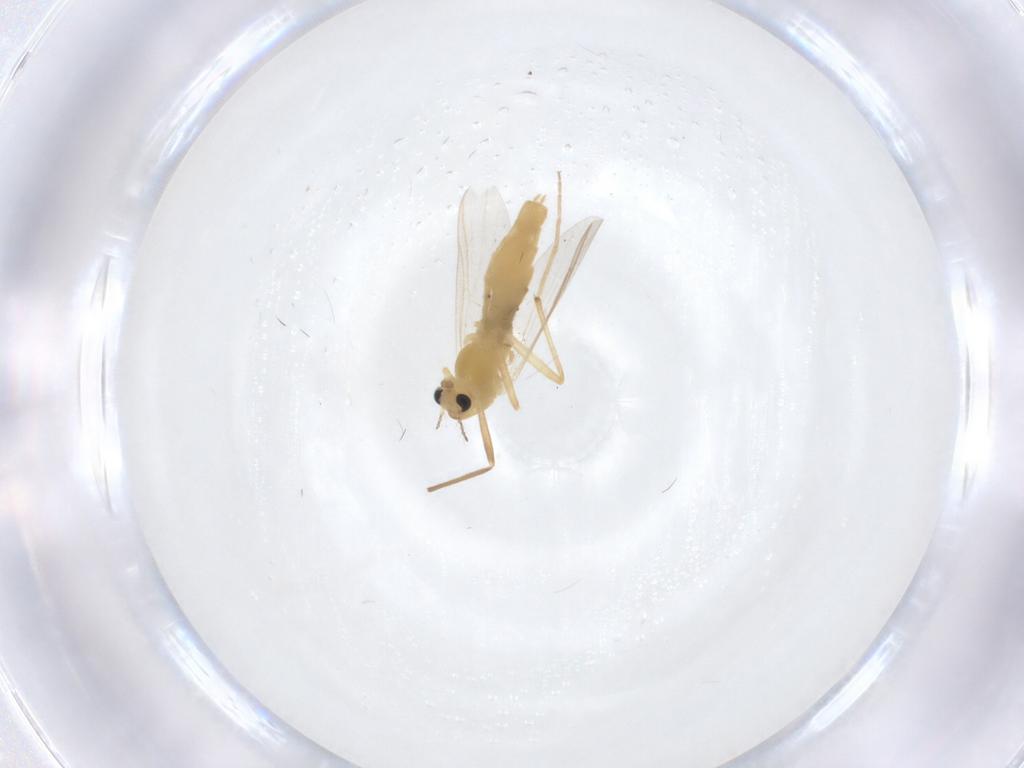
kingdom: Animalia
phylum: Arthropoda
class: Insecta
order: Diptera
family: Chironomidae
